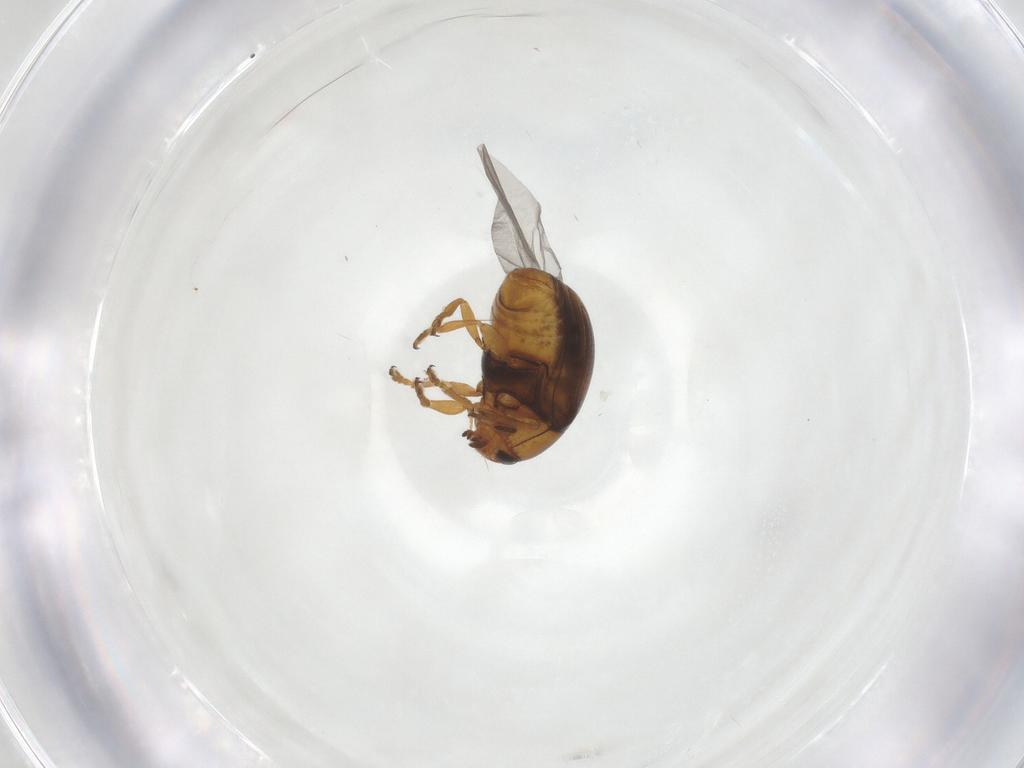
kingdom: Animalia
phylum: Arthropoda
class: Insecta
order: Coleoptera
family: Chrysomelidae
